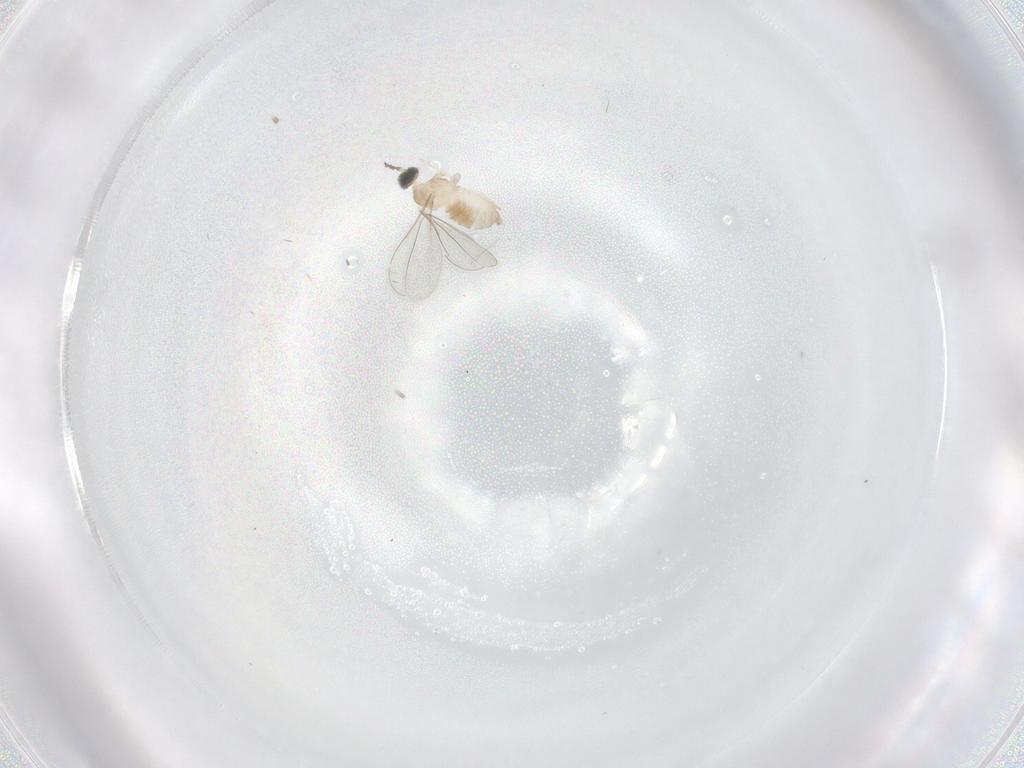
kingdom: Animalia
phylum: Arthropoda
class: Insecta
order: Diptera
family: Cecidomyiidae
